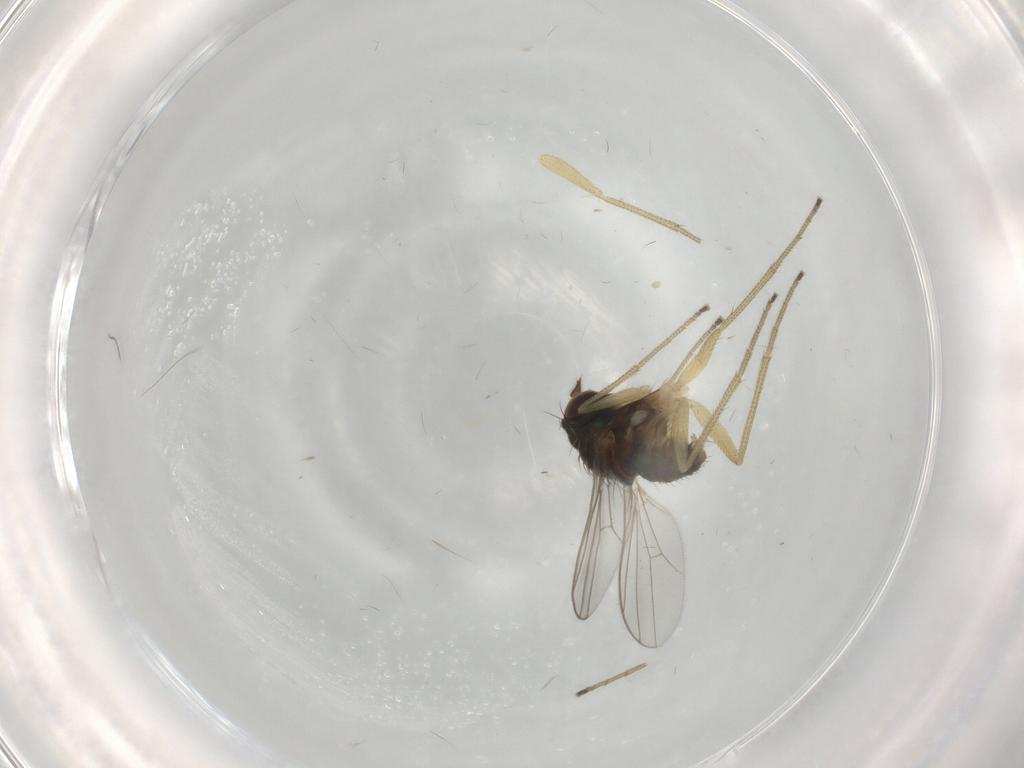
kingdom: Animalia
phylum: Arthropoda
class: Insecta
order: Diptera
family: Dolichopodidae
